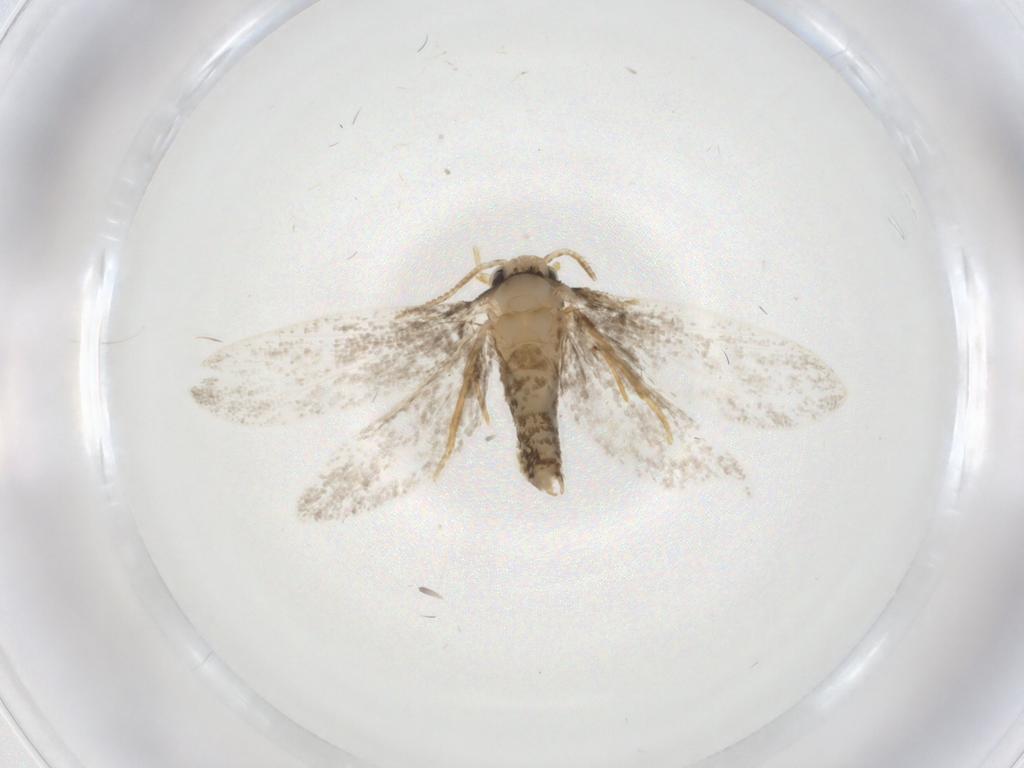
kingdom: Animalia
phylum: Arthropoda
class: Insecta
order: Lepidoptera
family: Psychidae
